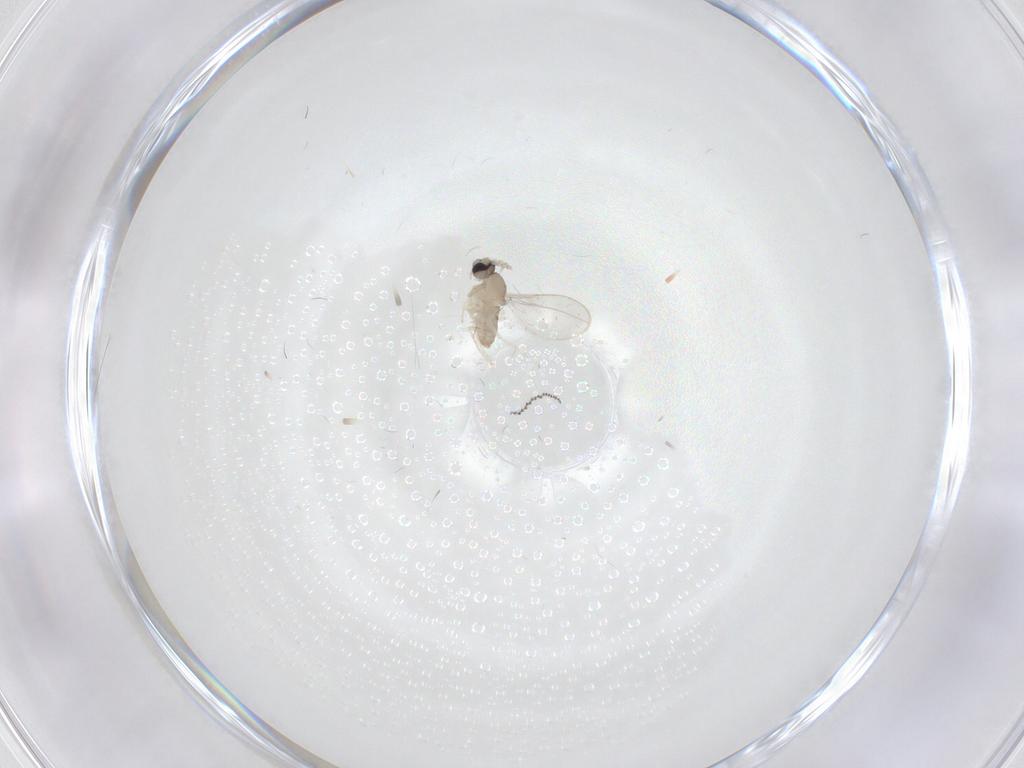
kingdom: Animalia
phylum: Arthropoda
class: Insecta
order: Diptera
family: Cecidomyiidae
